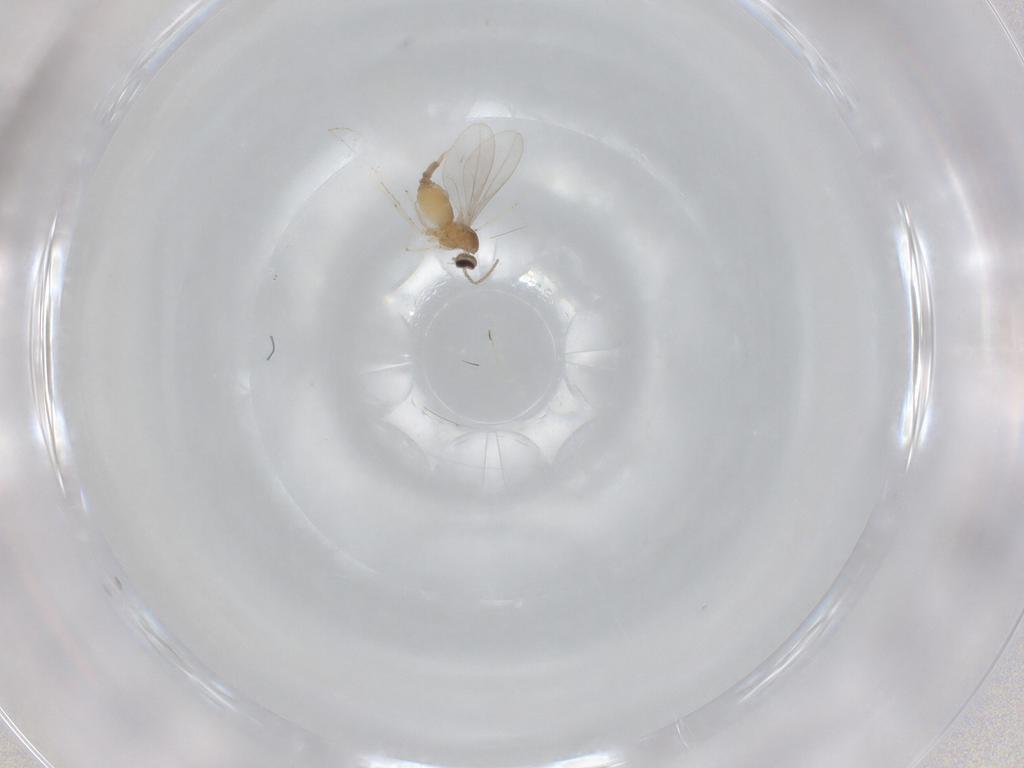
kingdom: Animalia
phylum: Arthropoda
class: Insecta
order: Diptera
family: Cecidomyiidae
